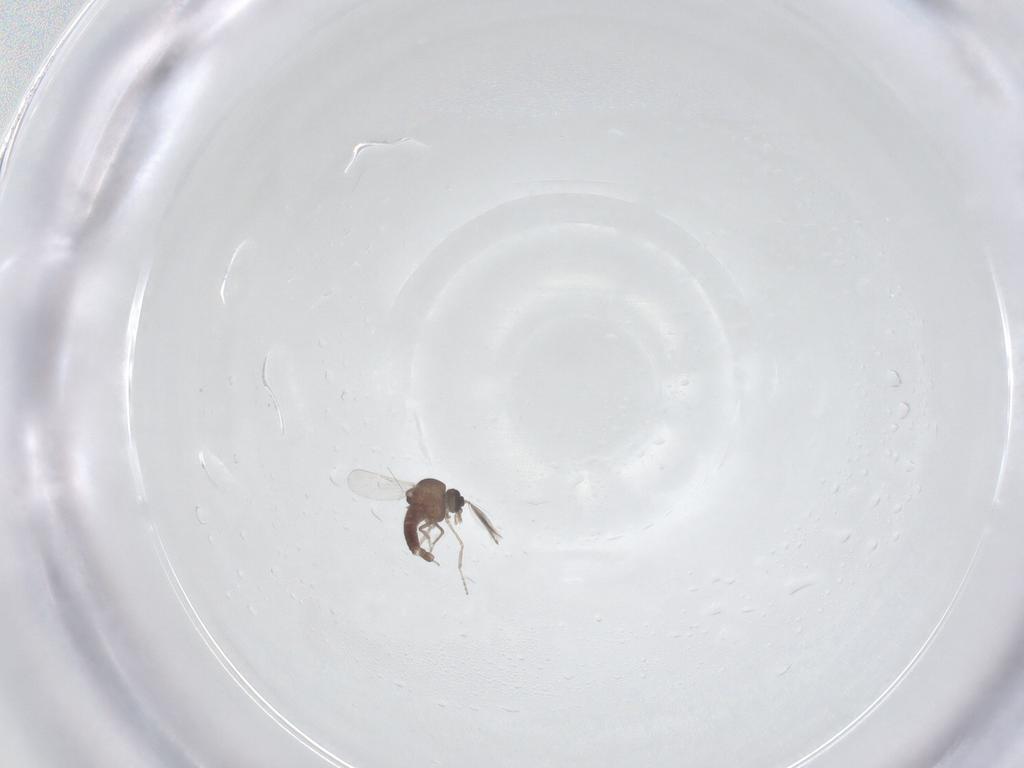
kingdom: Animalia
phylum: Arthropoda
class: Insecta
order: Diptera
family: Ceratopogonidae
